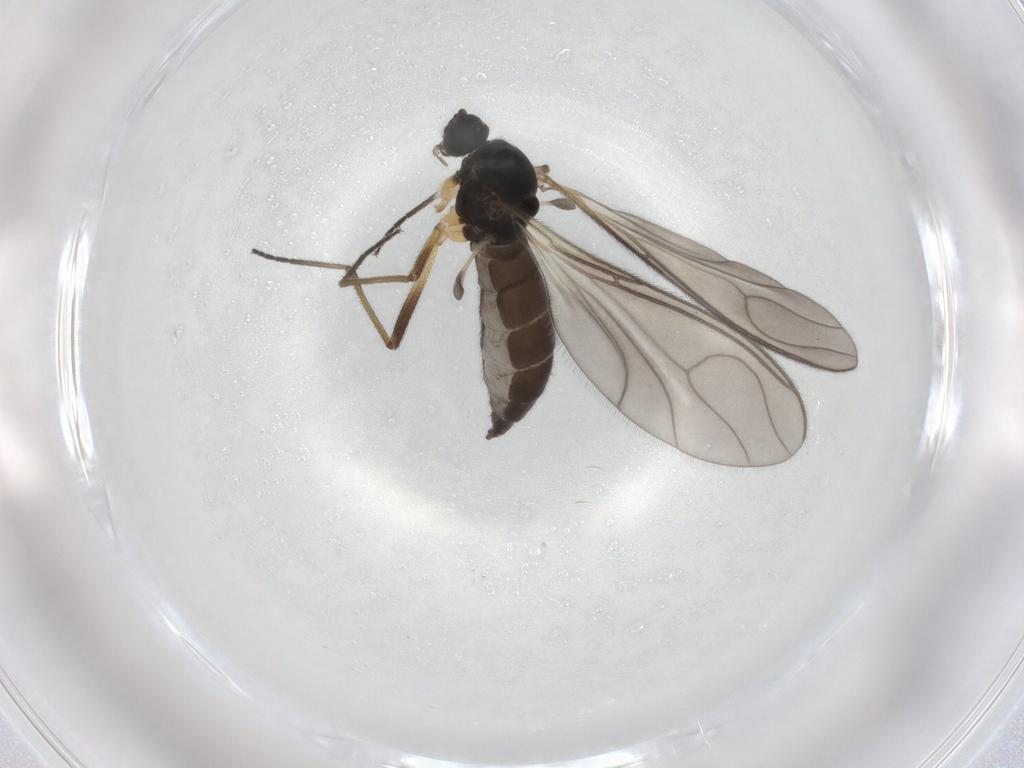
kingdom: Animalia
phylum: Arthropoda
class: Insecta
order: Diptera
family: Sciaridae
